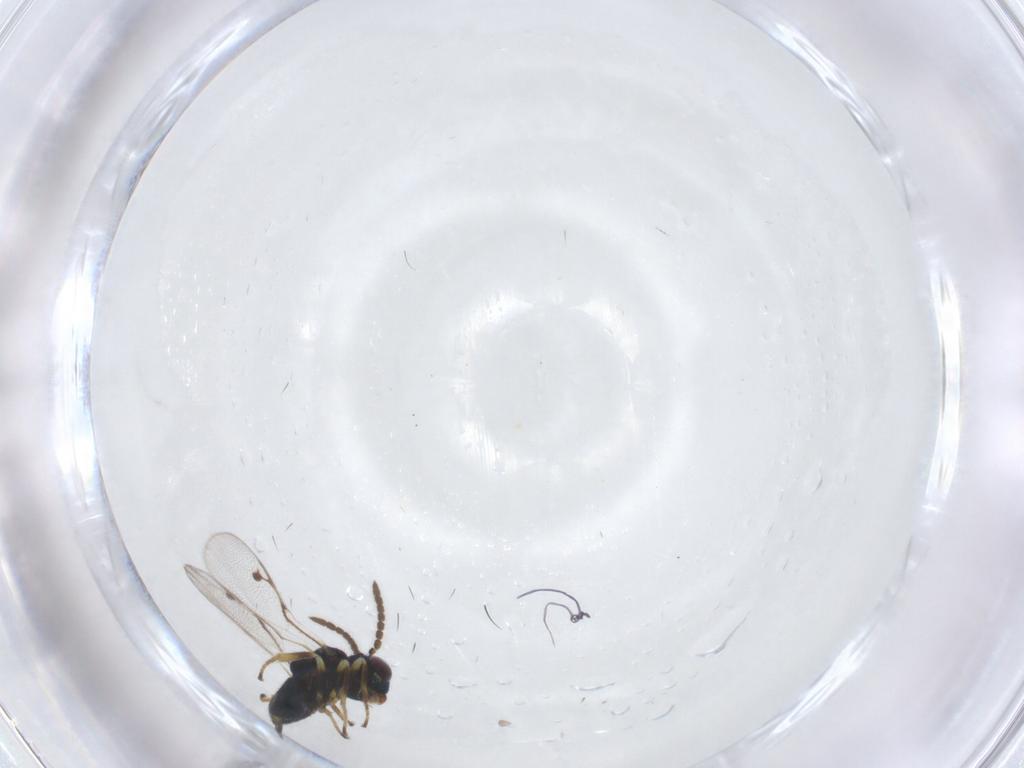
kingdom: Animalia
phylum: Arthropoda
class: Insecta
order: Hymenoptera
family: Pirenidae
